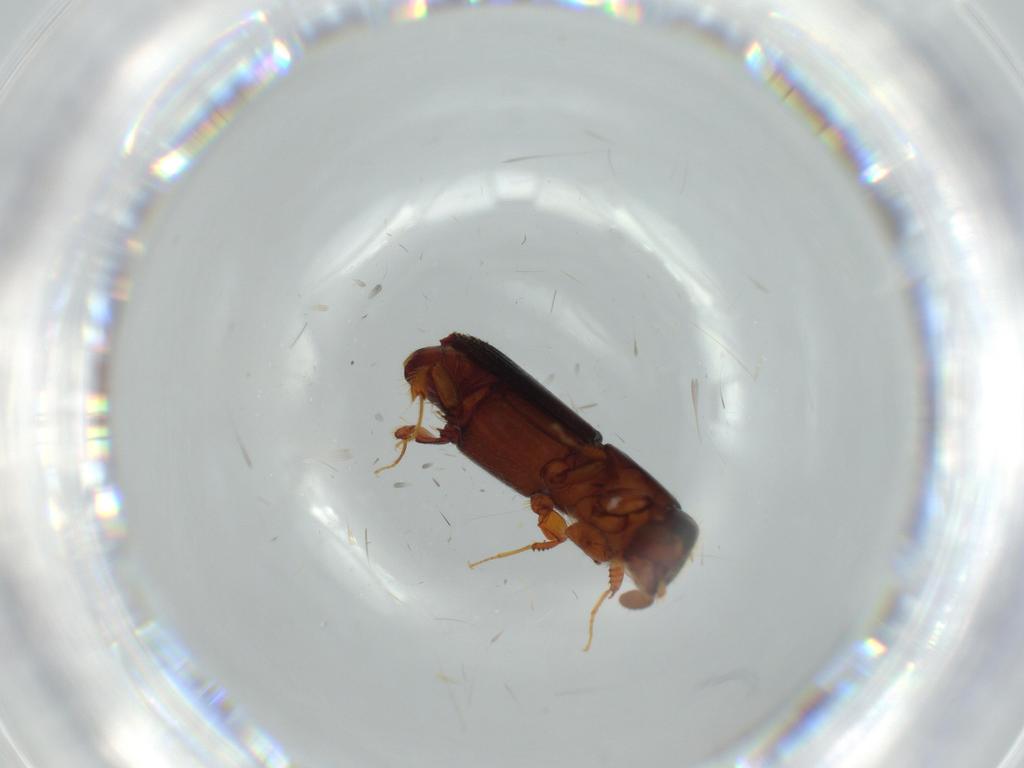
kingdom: Animalia
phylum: Arthropoda
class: Insecta
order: Coleoptera
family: Curculionidae
